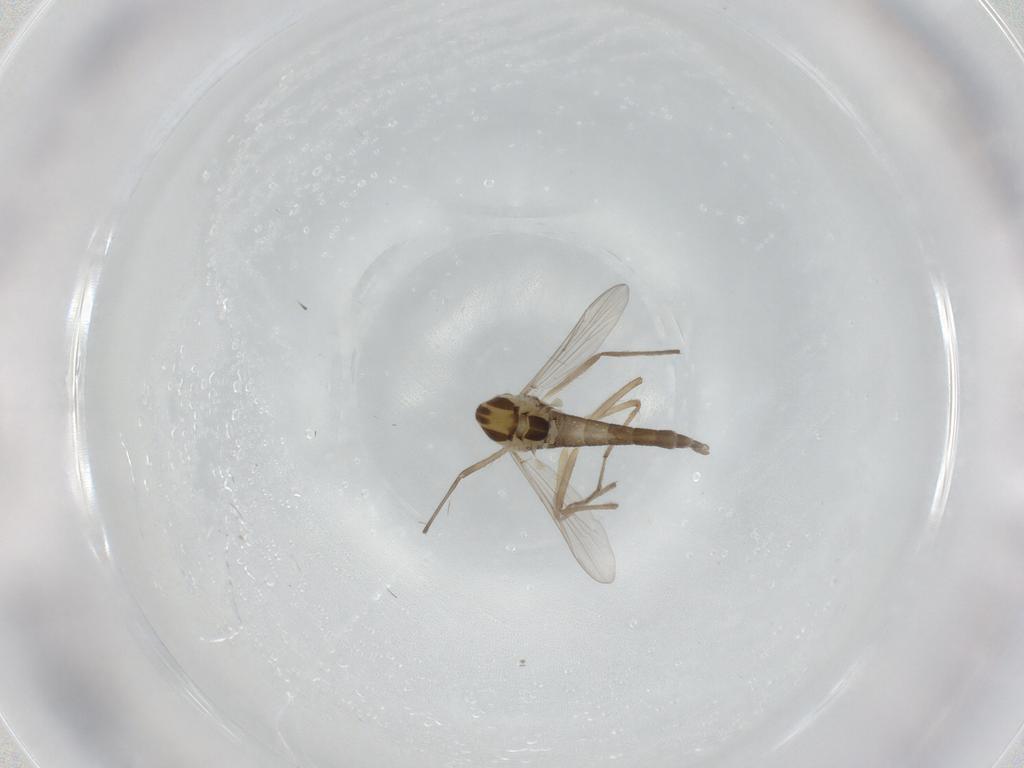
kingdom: Animalia
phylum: Arthropoda
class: Insecta
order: Diptera
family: Chironomidae
